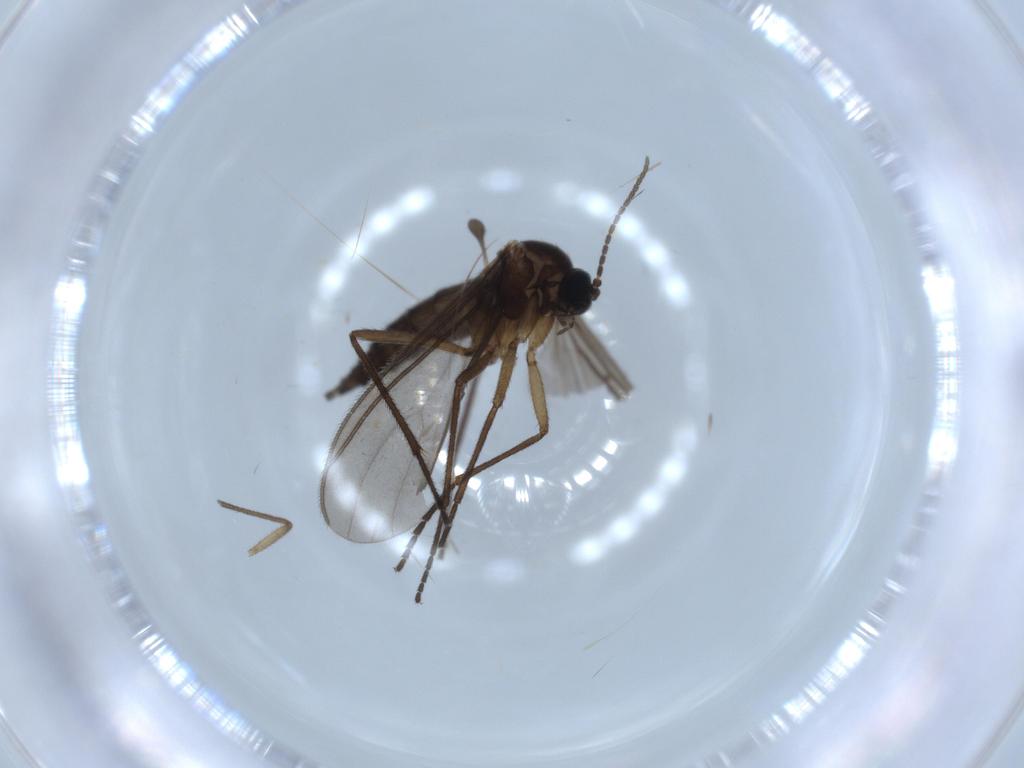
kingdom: Animalia
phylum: Arthropoda
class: Insecta
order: Diptera
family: Sciaridae
